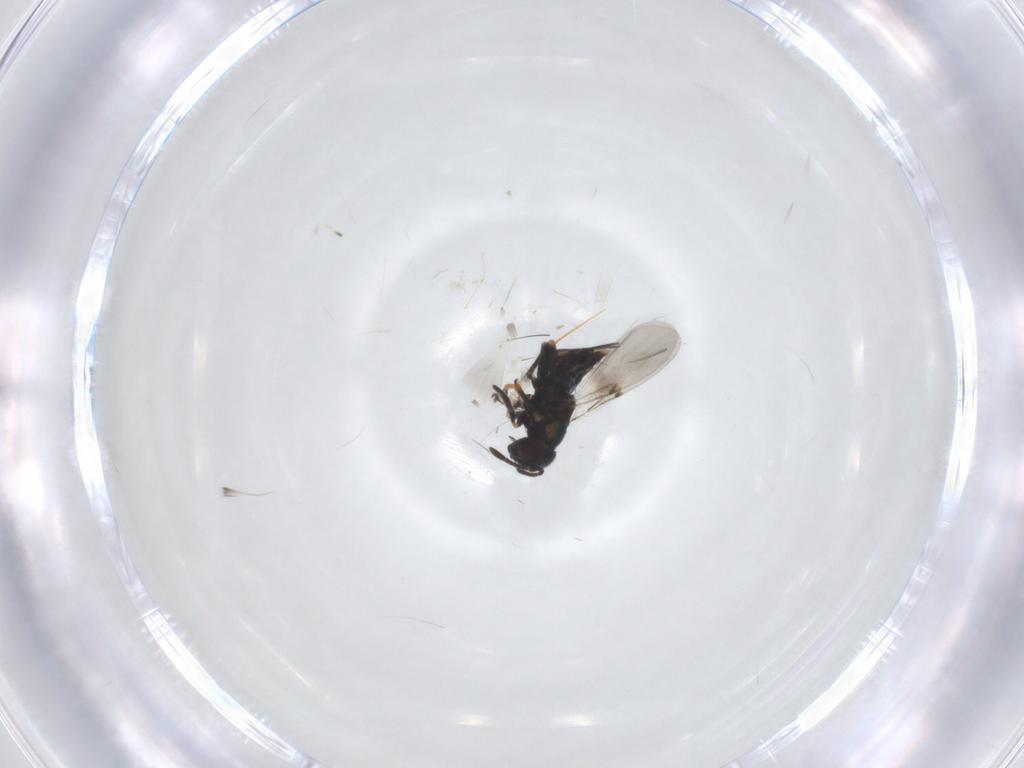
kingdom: Animalia
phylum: Arthropoda
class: Insecta
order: Hymenoptera
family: Encyrtidae
